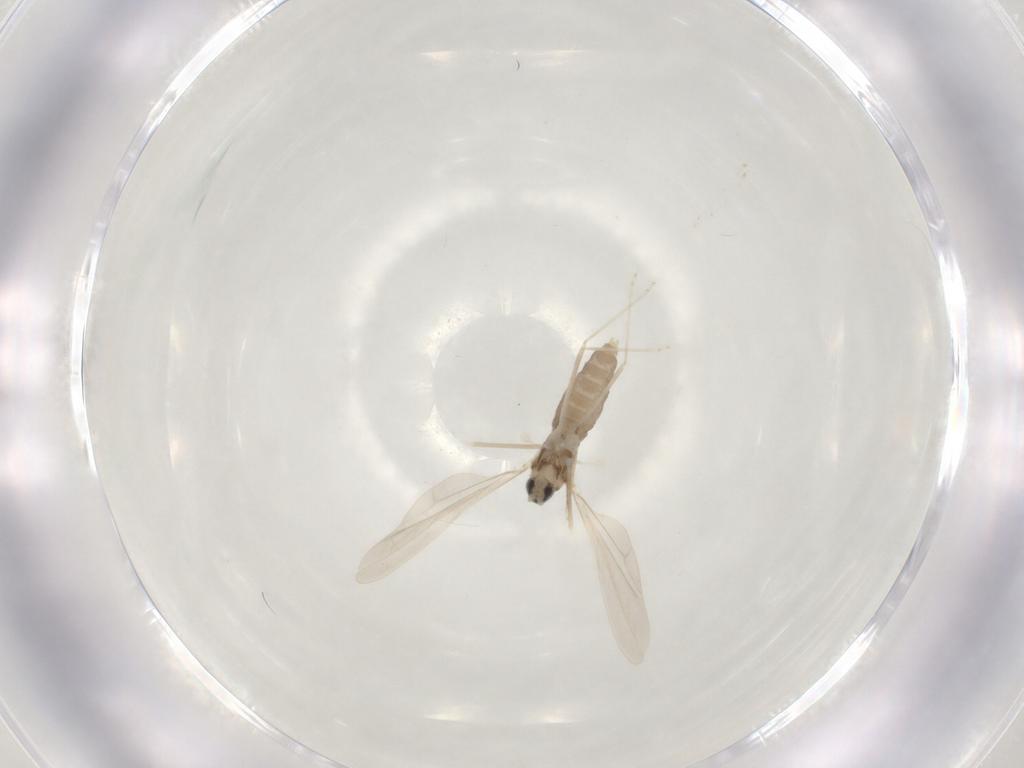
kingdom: Animalia
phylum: Arthropoda
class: Insecta
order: Diptera
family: Cecidomyiidae
